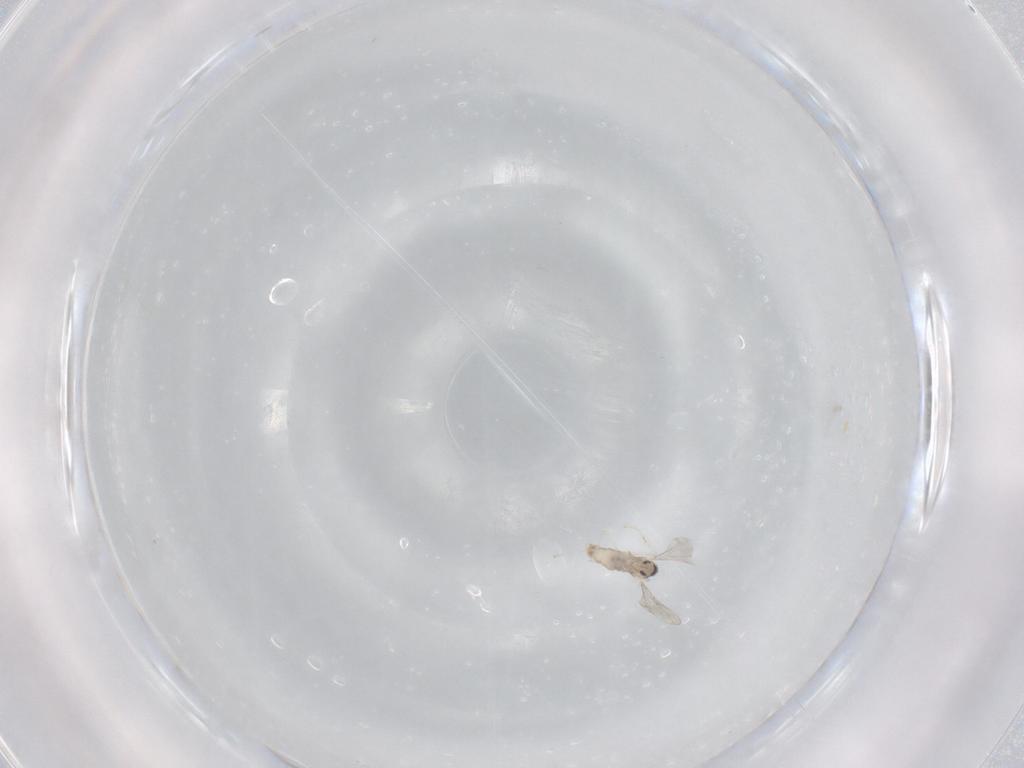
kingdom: Animalia
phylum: Arthropoda
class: Insecta
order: Diptera
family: Cecidomyiidae
